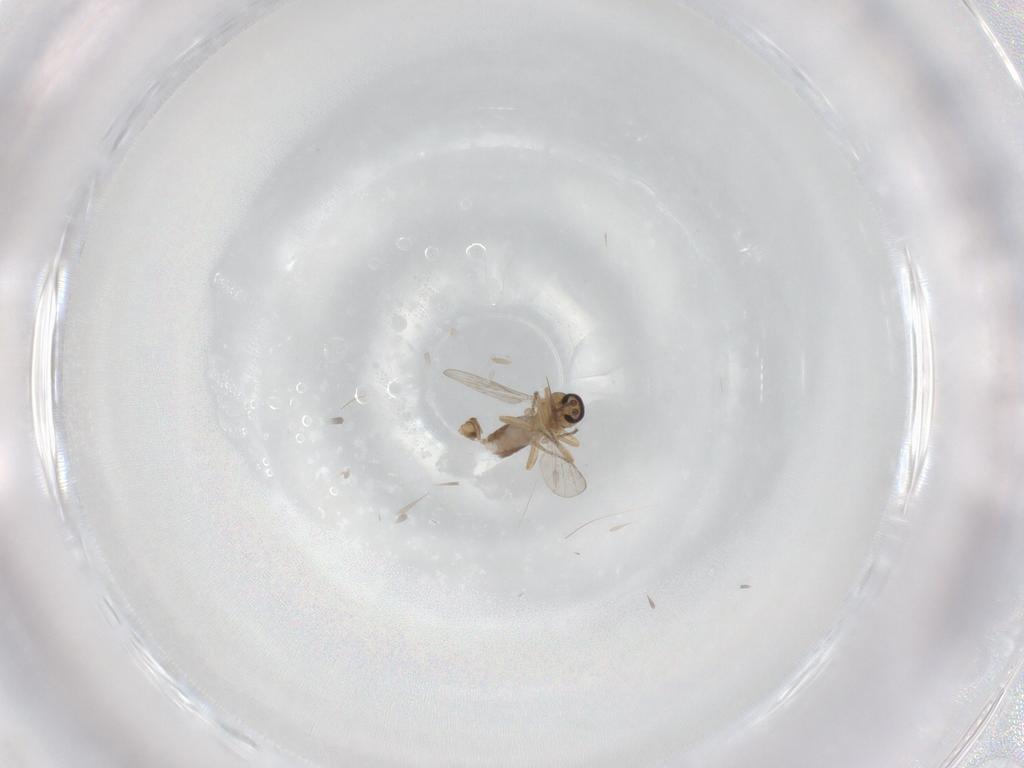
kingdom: Animalia
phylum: Arthropoda
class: Insecta
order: Diptera
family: Ceratopogonidae
